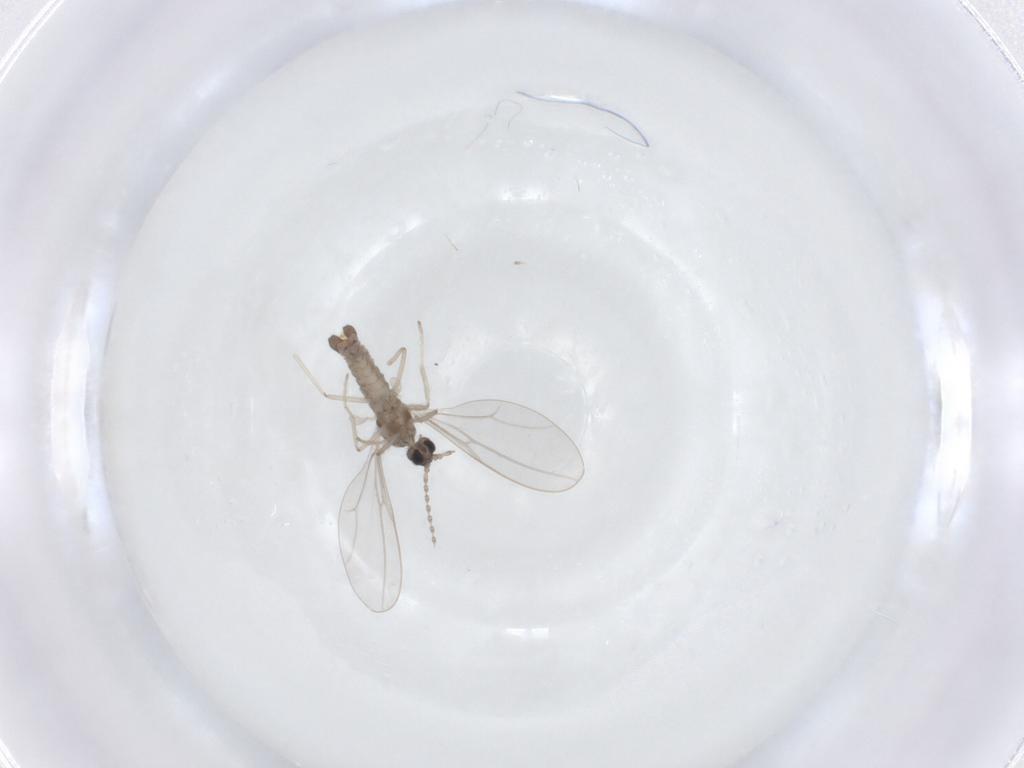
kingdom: Animalia
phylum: Arthropoda
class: Insecta
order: Diptera
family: Cecidomyiidae
